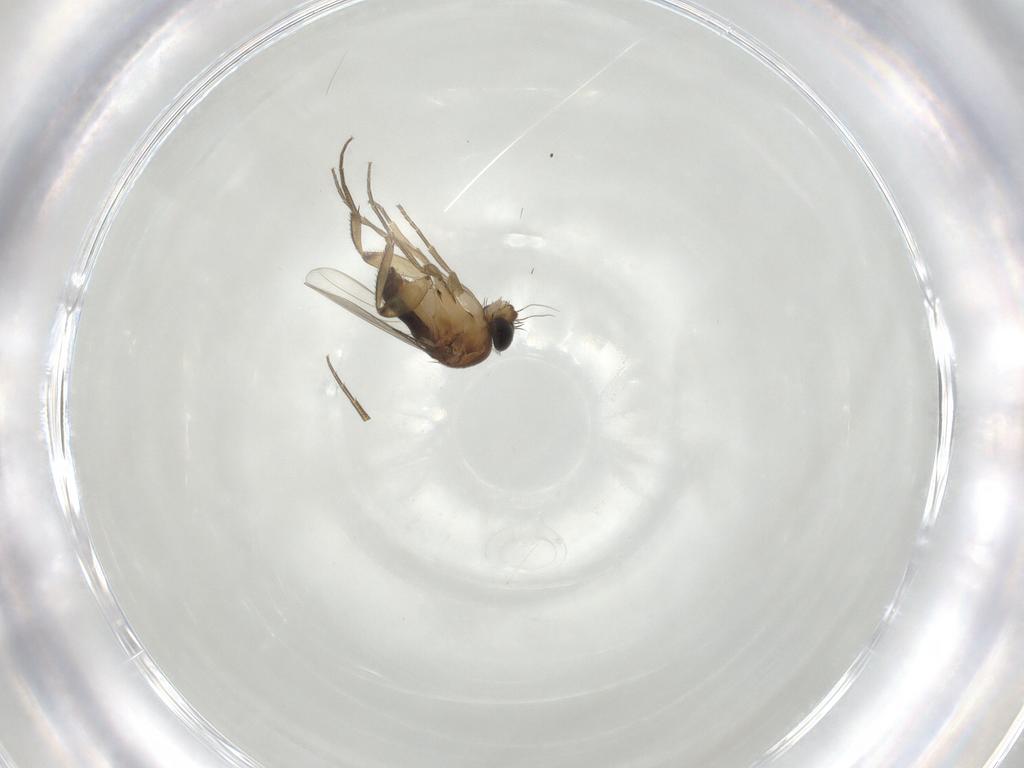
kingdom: Animalia
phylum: Arthropoda
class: Insecta
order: Diptera
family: Phoridae
